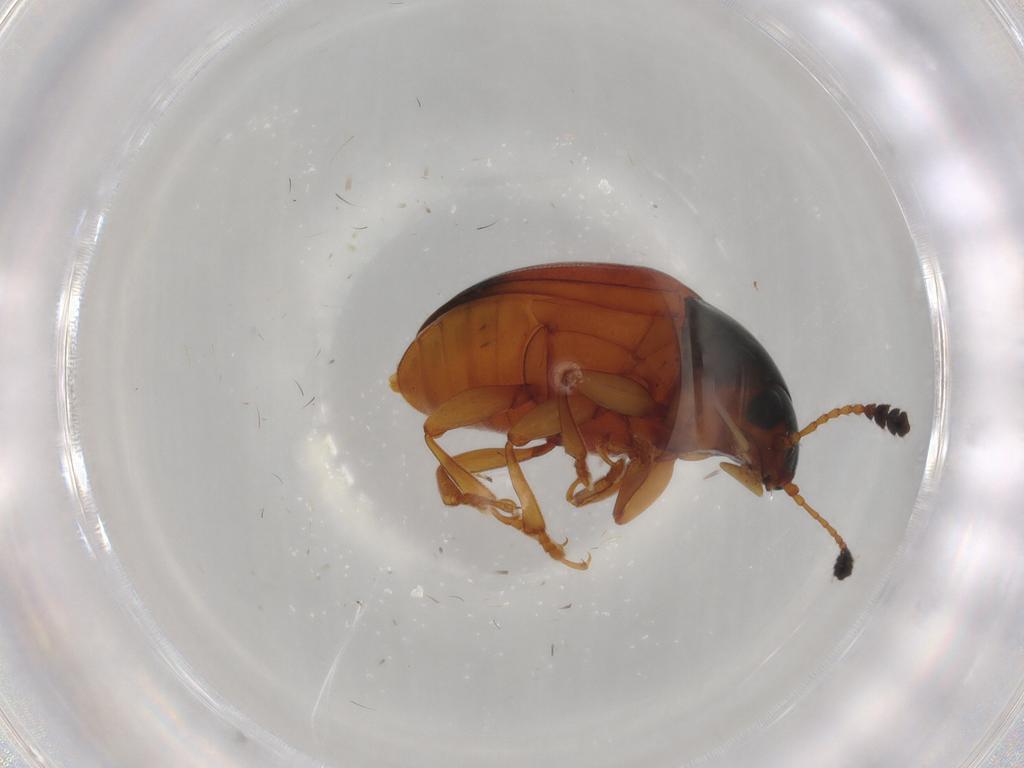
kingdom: Animalia
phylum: Arthropoda
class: Insecta
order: Coleoptera
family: Erotylidae
